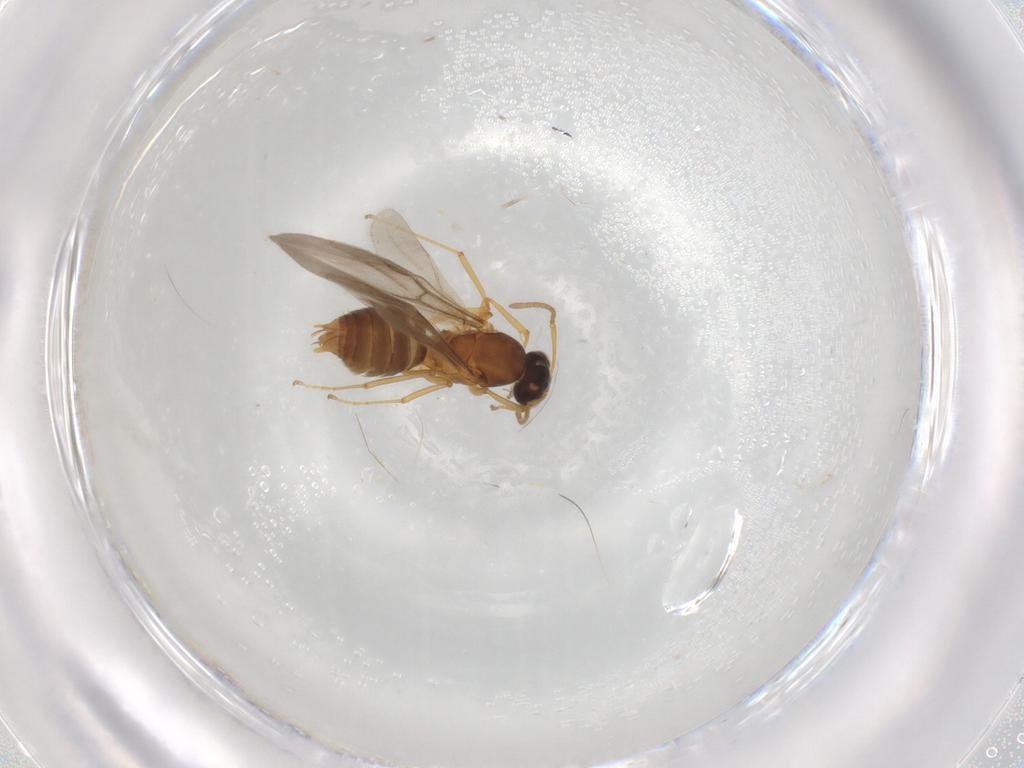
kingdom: Animalia
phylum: Arthropoda
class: Insecta
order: Hymenoptera
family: Formicidae
